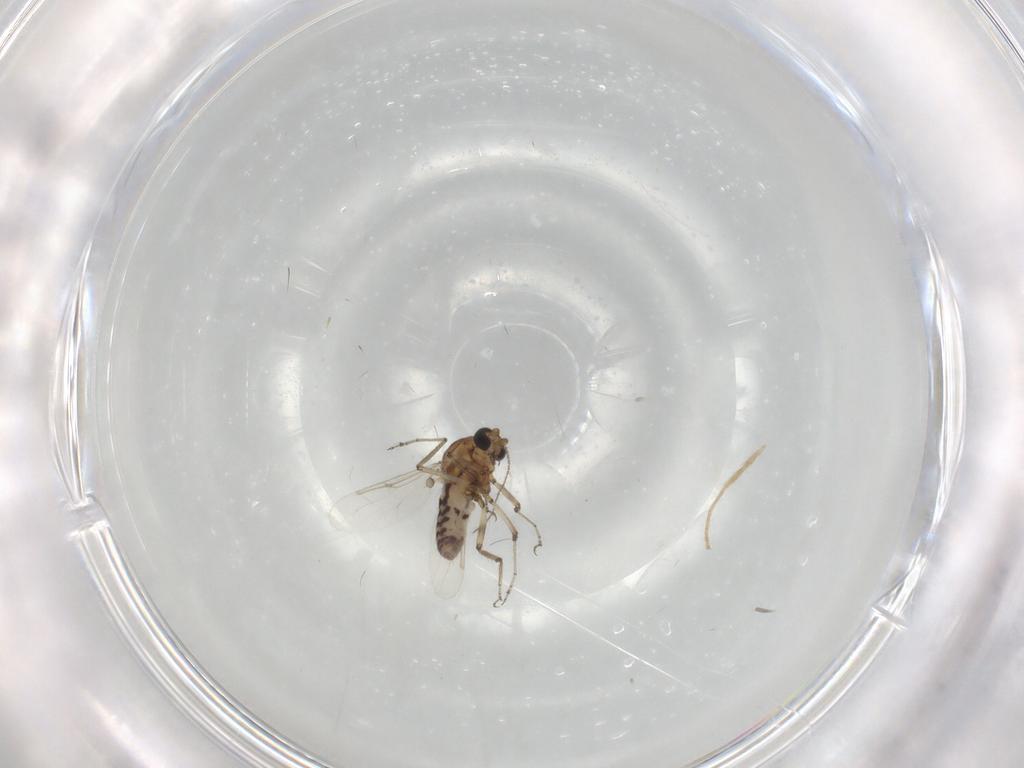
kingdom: Animalia
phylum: Arthropoda
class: Insecta
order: Diptera
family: Ceratopogonidae
